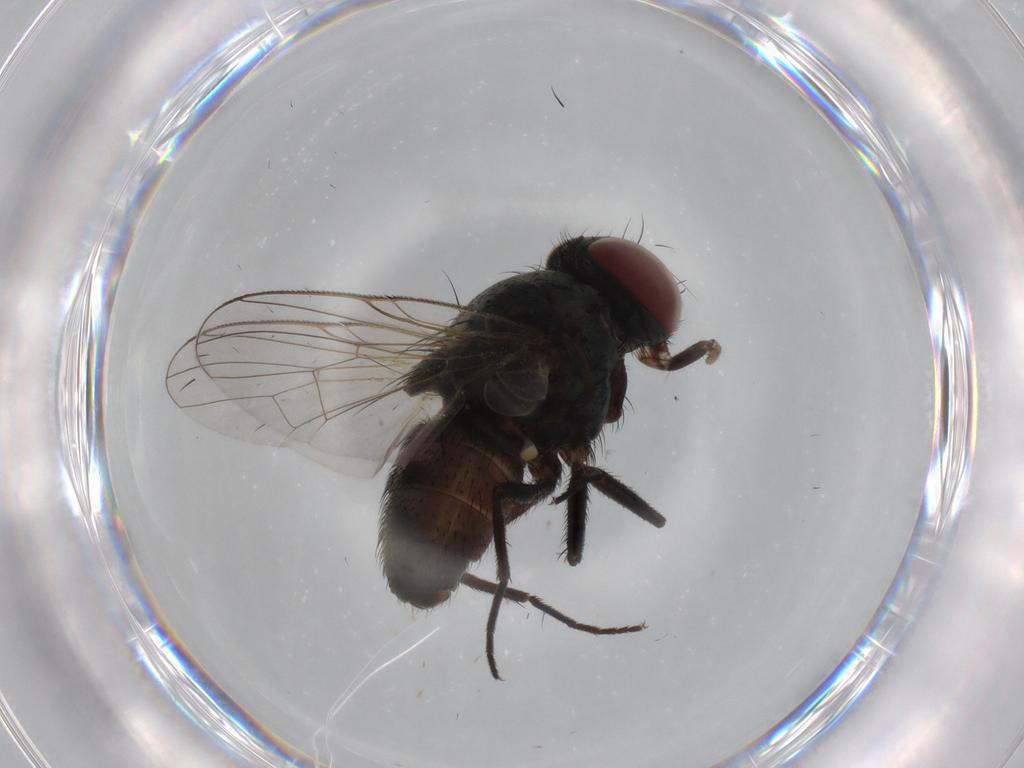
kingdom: Animalia
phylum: Arthropoda
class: Insecta
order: Diptera
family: Muscidae
